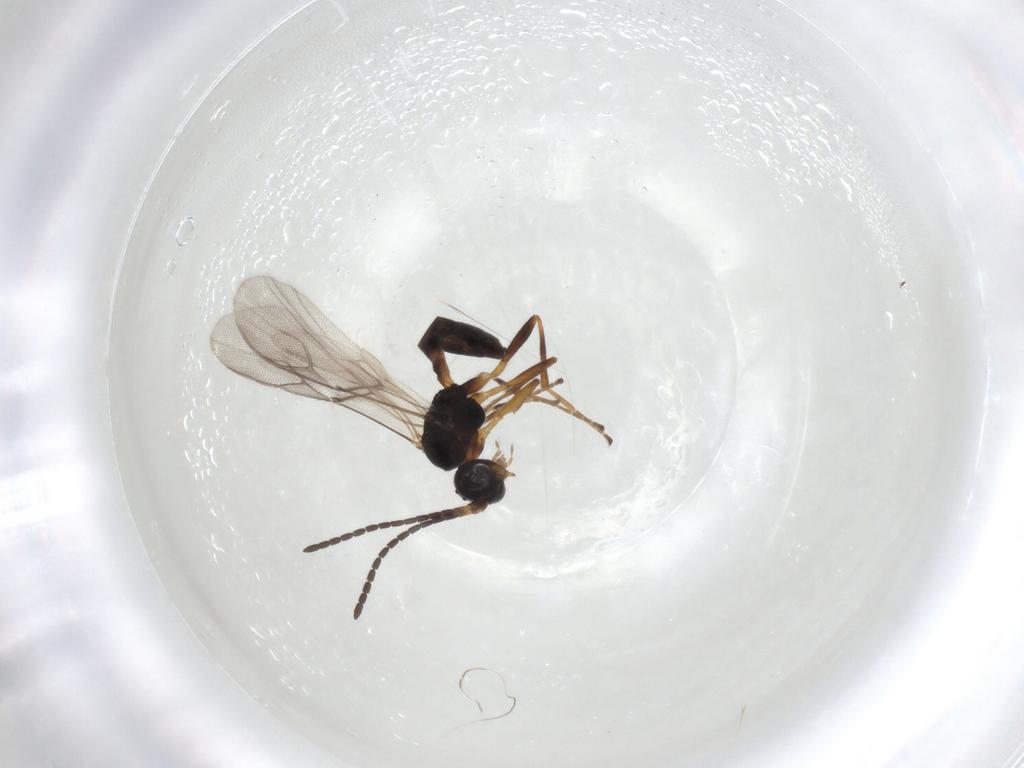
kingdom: Animalia
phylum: Arthropoda
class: Insecta
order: Hymenoptera
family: Braconidae
